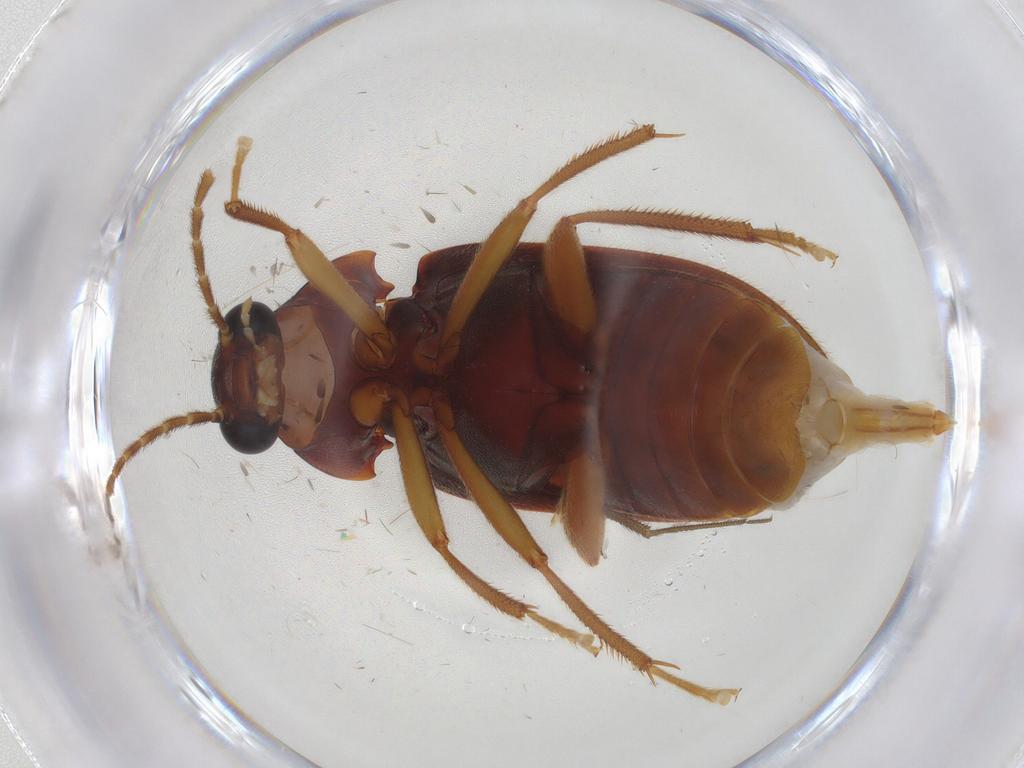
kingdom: Animalia
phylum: Arthropoda
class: Insecta
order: Coleoptera
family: Ptilodactylidae
